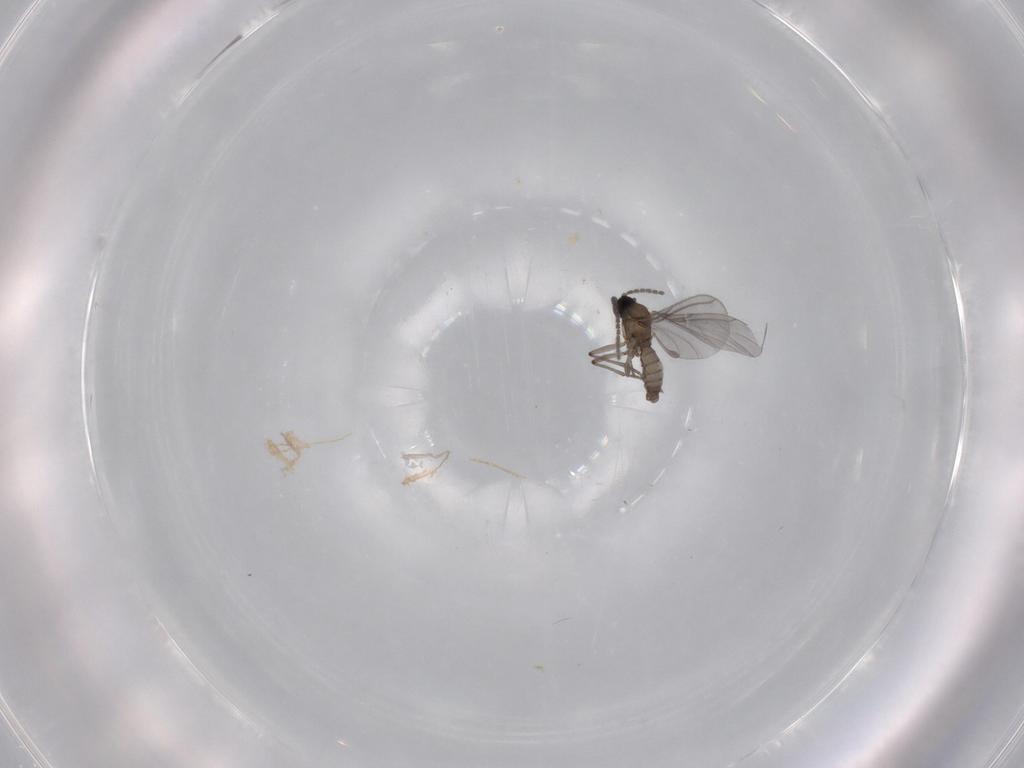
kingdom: Animalia
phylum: Arthropoda
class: Insecta
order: Diptera
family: Sciaridae
